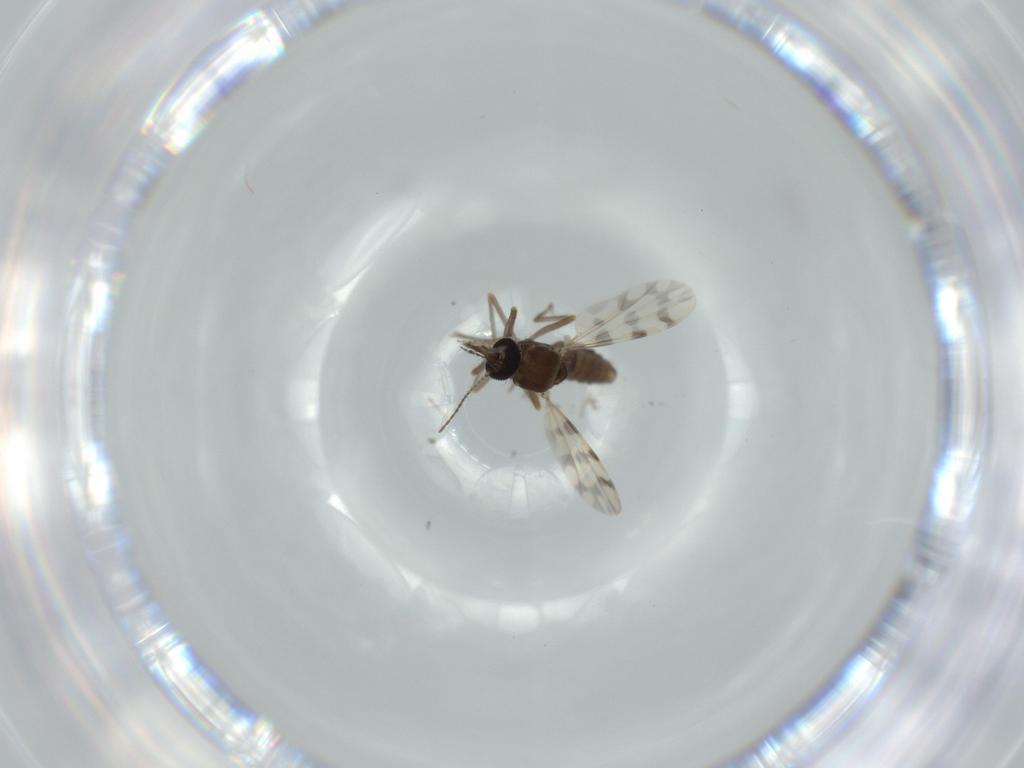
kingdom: Animalia
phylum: Arthropoda
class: Insecta
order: Diptera
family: Ceratopogonidae
